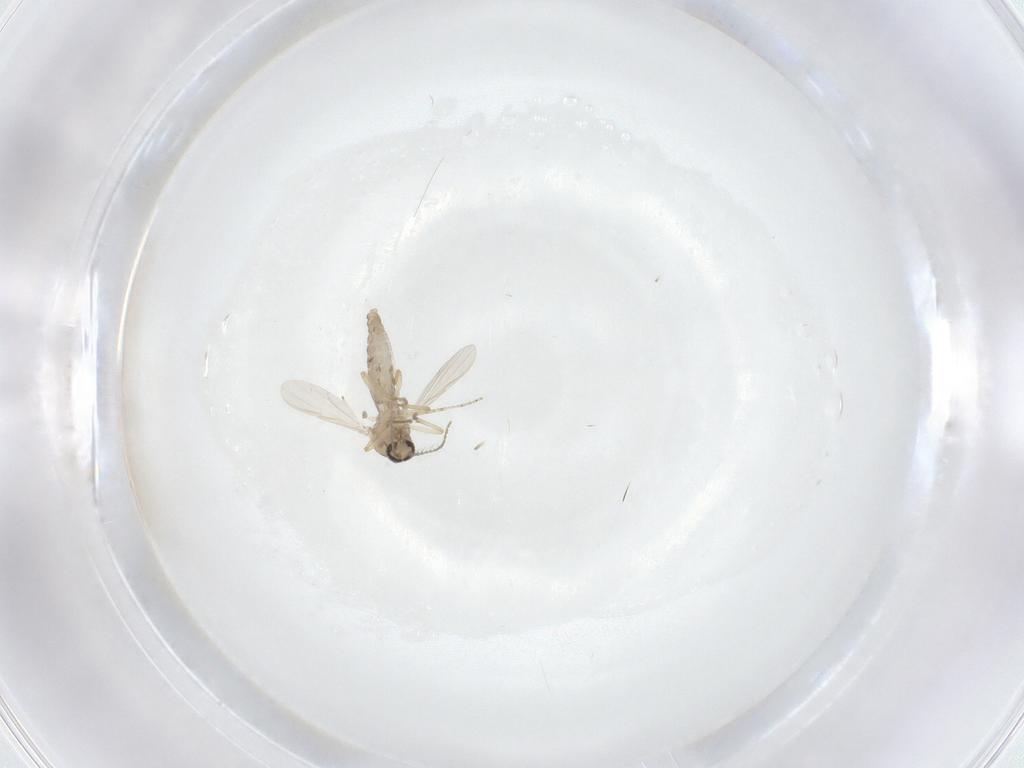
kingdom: Animalia
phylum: Arthropoda
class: Insecta
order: Diptera
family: Ceratopogonidae
